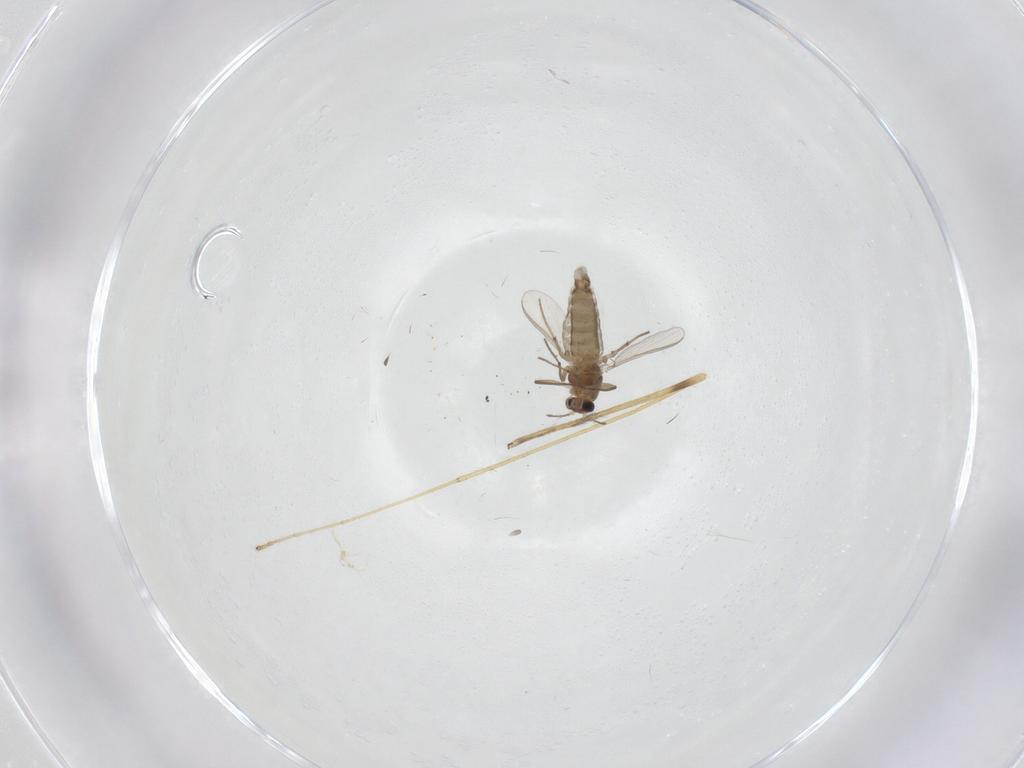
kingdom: Animalia
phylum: Arthropoda
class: Insecta
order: Diptera
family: Chironomidae
